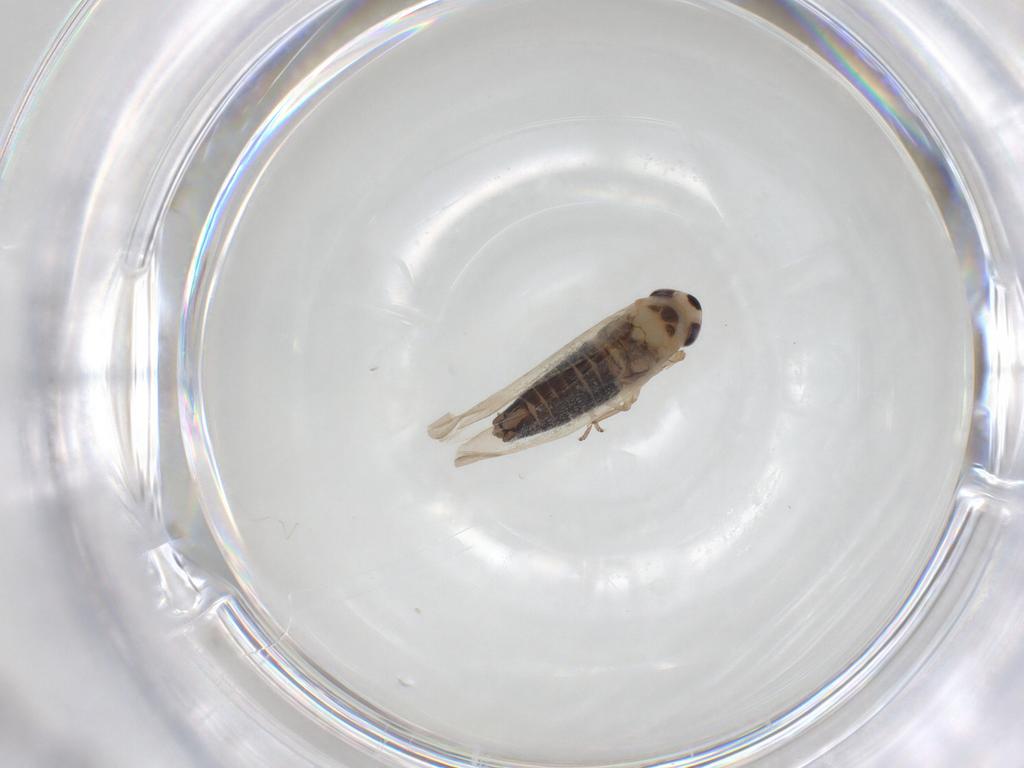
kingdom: Animalia
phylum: Arthropoda
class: Insecta
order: Hemiptera
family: Cicadellidae
